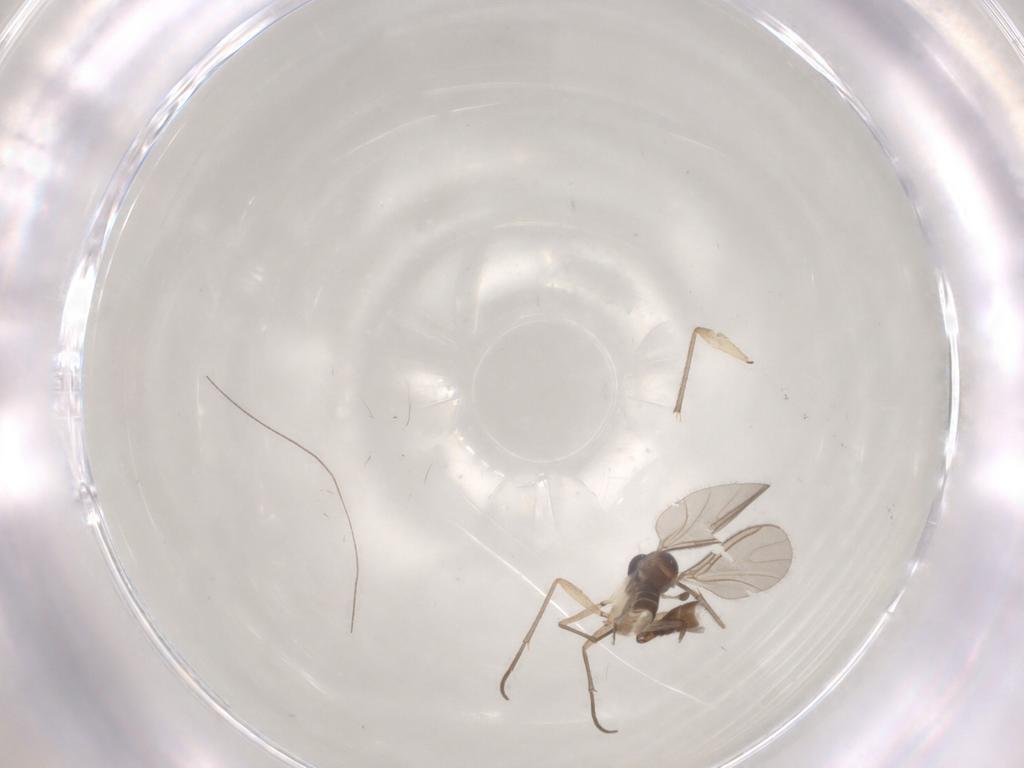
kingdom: Animalia
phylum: Arthropoda
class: Insecta
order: Diptera
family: Sciaridae
